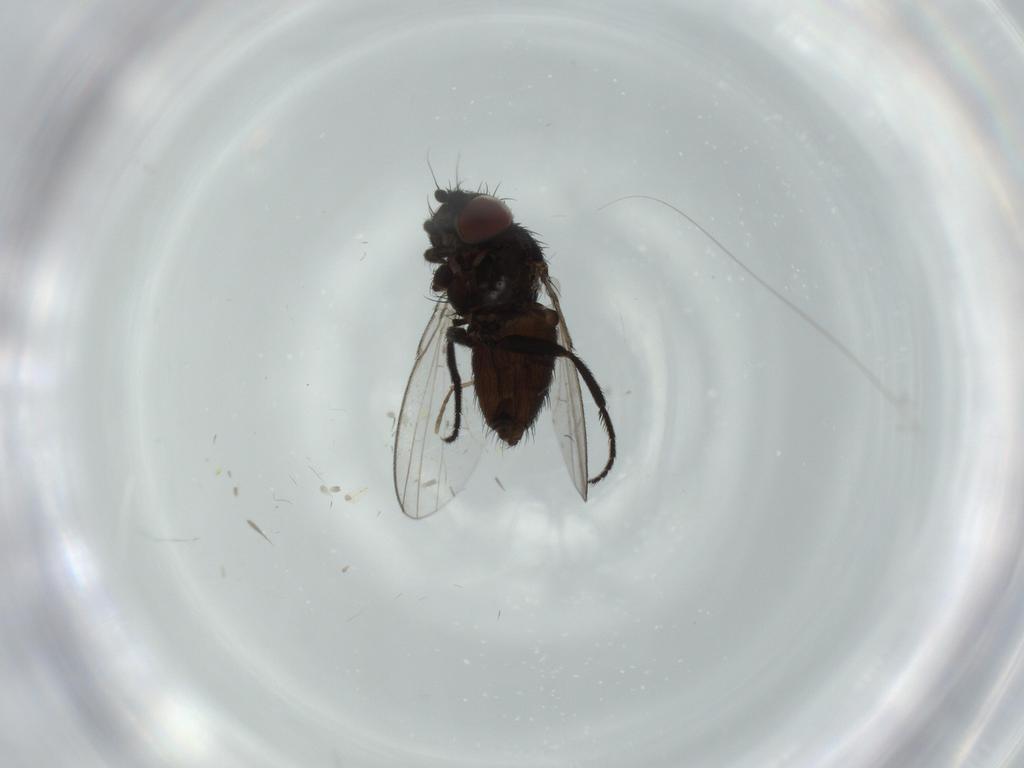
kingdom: Animalia
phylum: Arthropoda
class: Insecta
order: Diptera
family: Milichiidae
